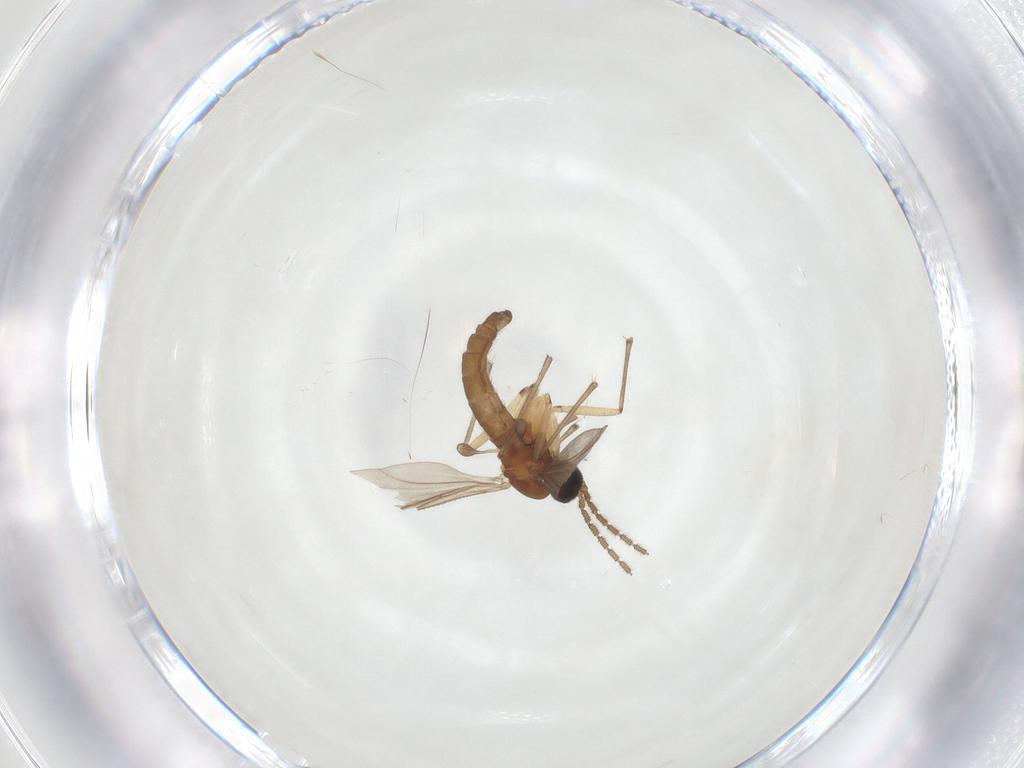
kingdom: Animalia
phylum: Arthropoda
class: Insecta
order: Diptera
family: Sciaridae
